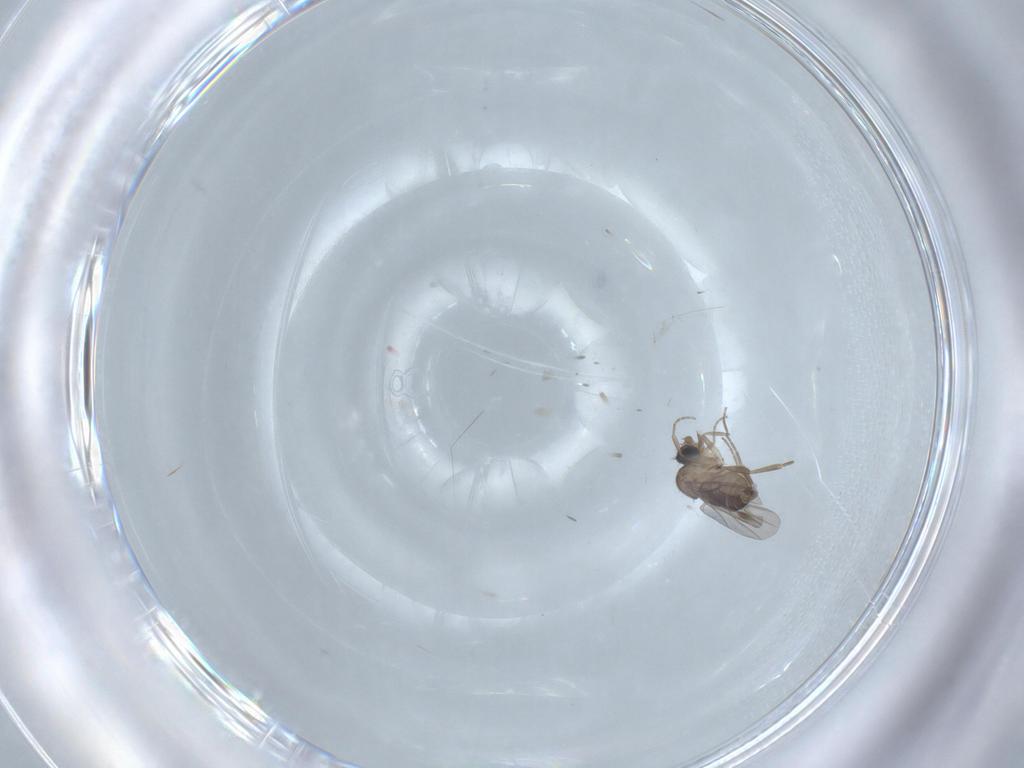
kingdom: Animalia
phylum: Arthropoda
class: Insecta
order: Diptera
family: Phoridae
